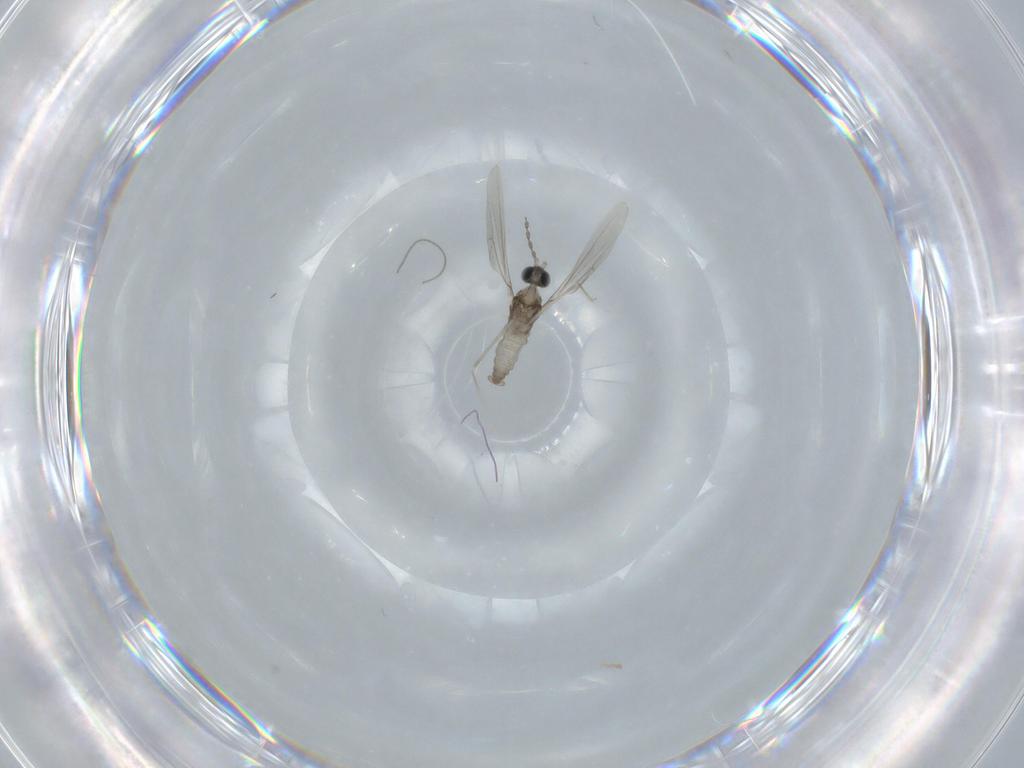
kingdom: Animalia
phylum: Arthropoda
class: Insecta
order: Diptera
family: Cecidomyiidae
